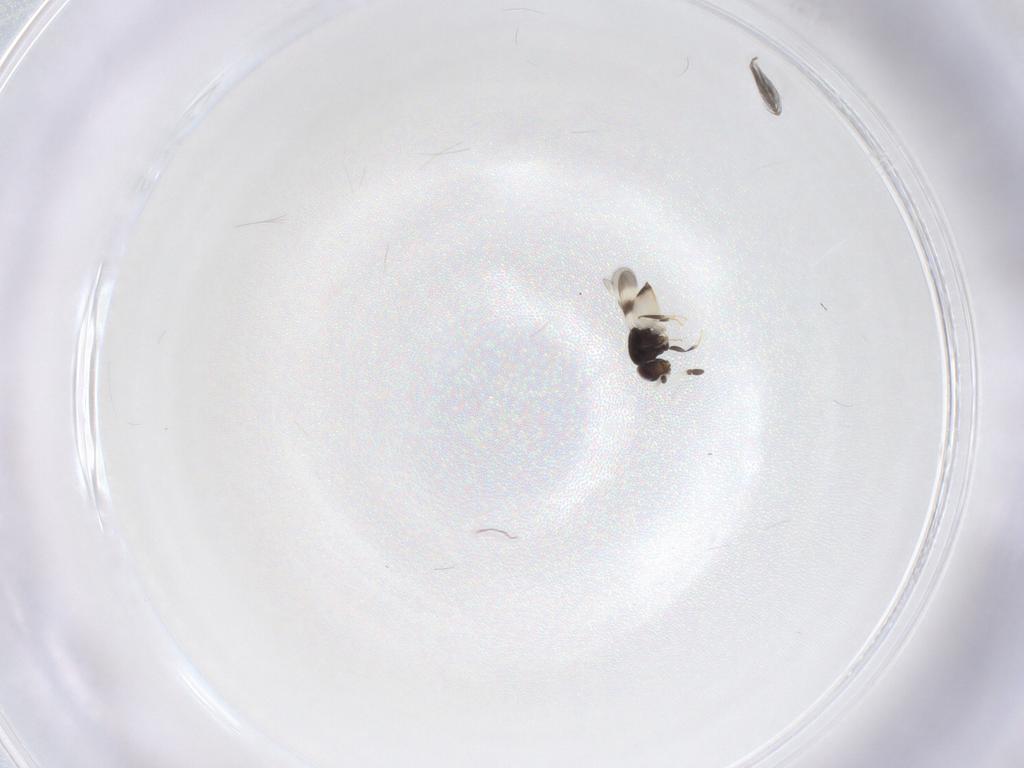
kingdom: Animalia
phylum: Arthropoda
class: Insecta
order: Diptera
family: Ceratopogonidae
